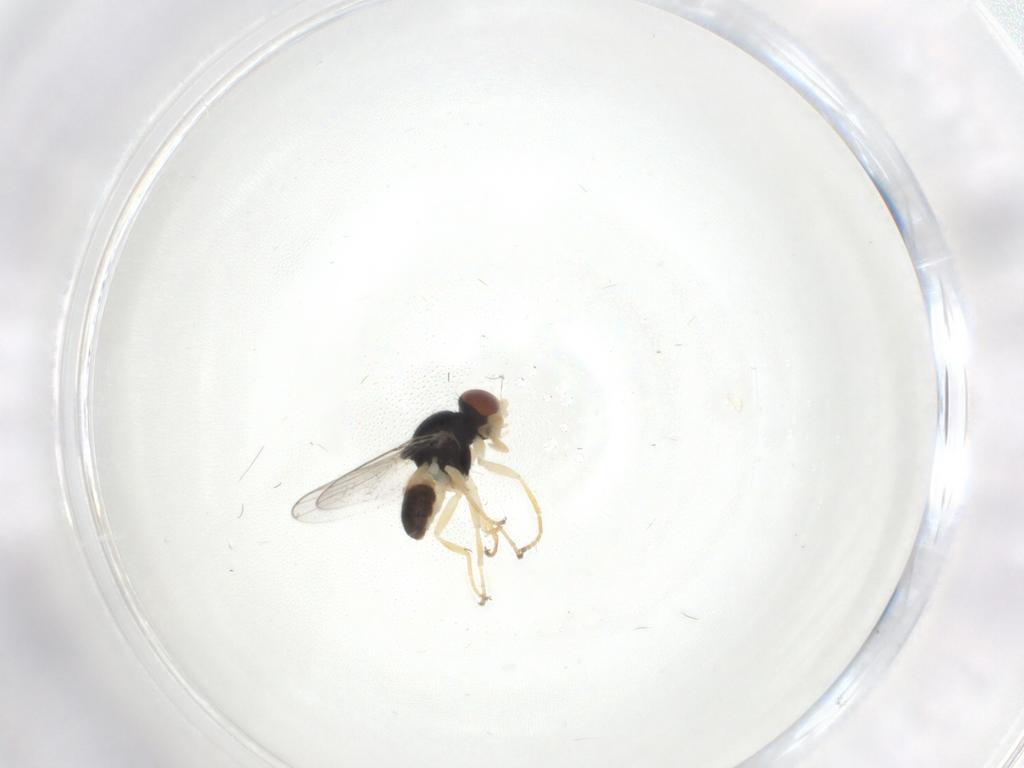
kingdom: Animalia
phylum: Arthropoda
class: Insecta
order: Diptera
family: Chloropidae
